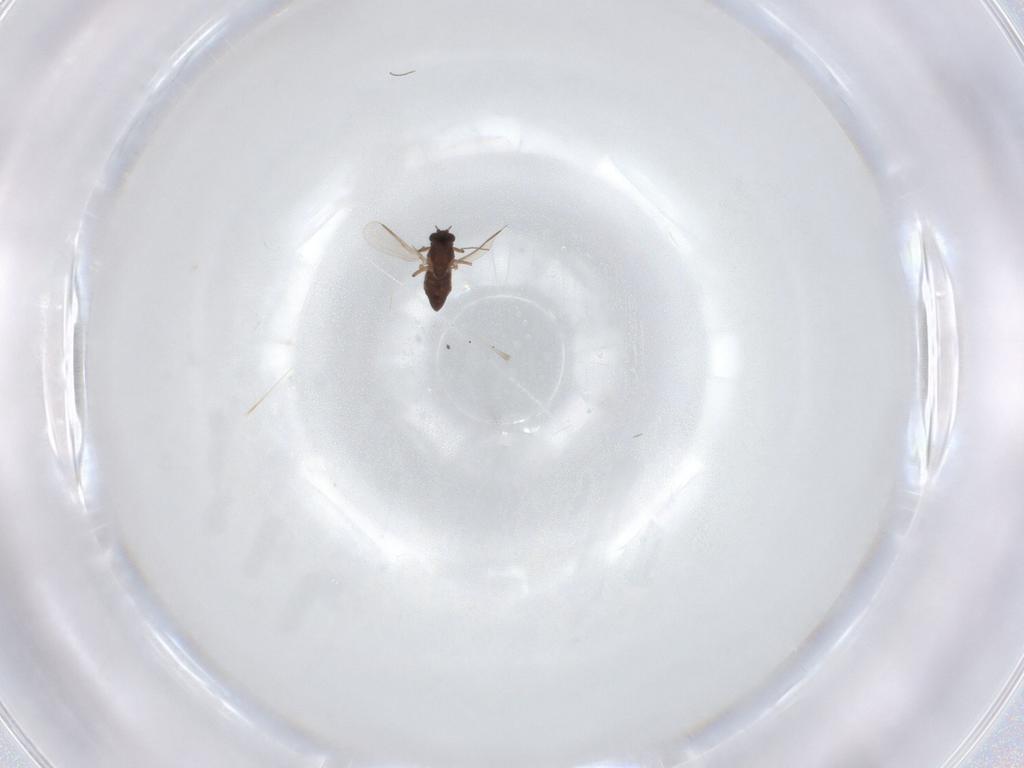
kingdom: Animalia
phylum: Arthropoda
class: Insecta
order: Diptera
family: Chironomidae
